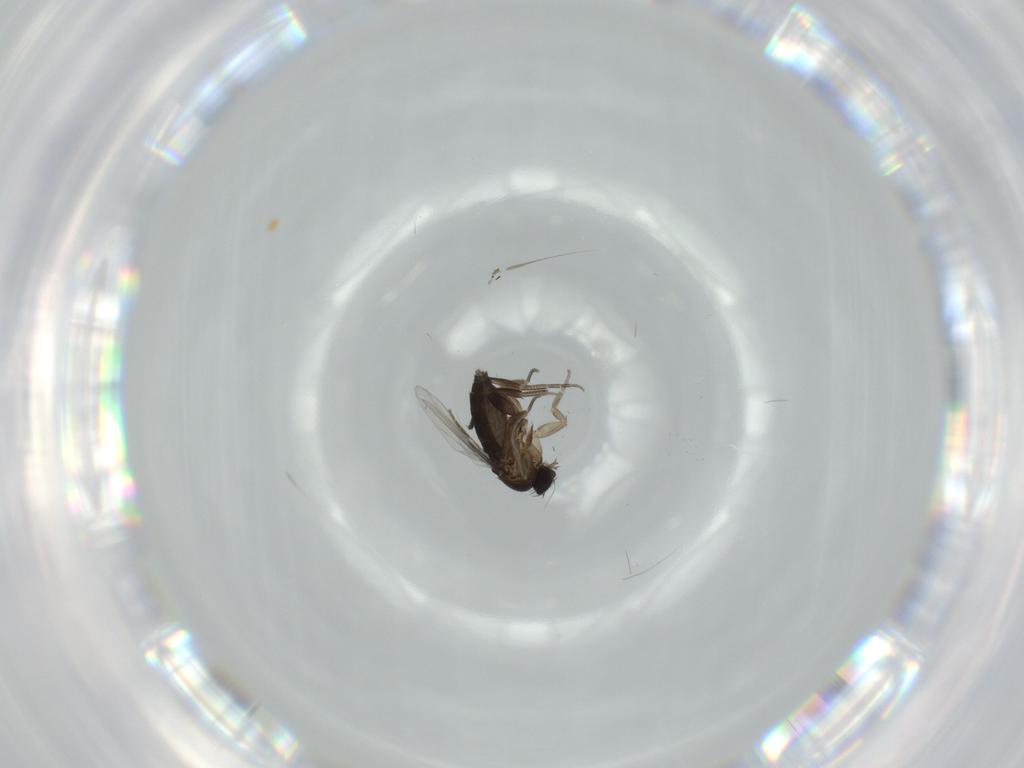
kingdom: Animalia
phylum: Arthropoda
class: Insecta
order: Diptera
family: Phoridae
